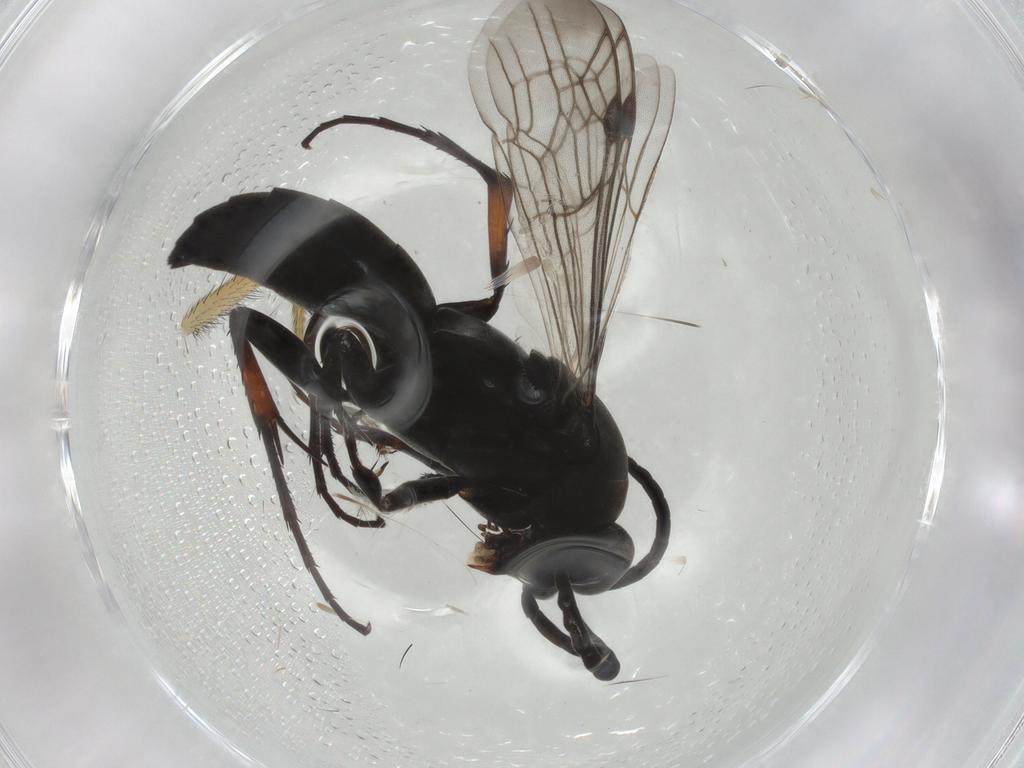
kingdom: Animalia
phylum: Arthropoda
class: Insecta
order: Hymenoptera
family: Pompilidae
